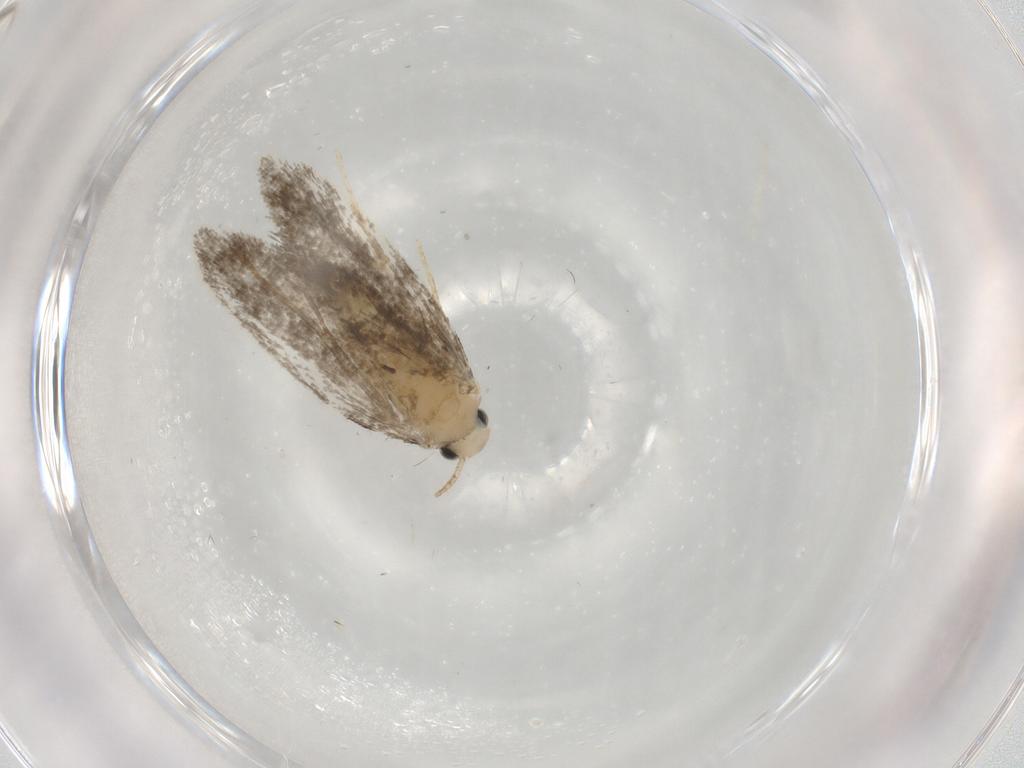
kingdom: Animalia
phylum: Arthropoda
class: Insecta
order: Lepidoptera
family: Psychidae
